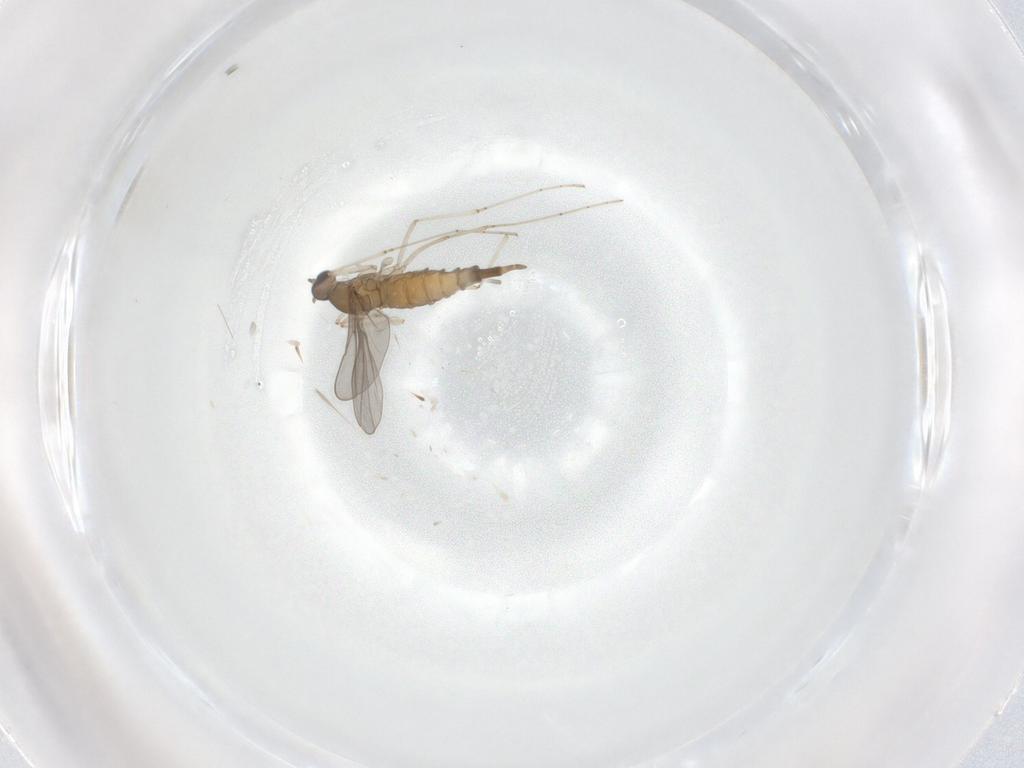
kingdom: Animalia
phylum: Arthropoda
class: Insecta
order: Diptera
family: Cecidomyiidae
